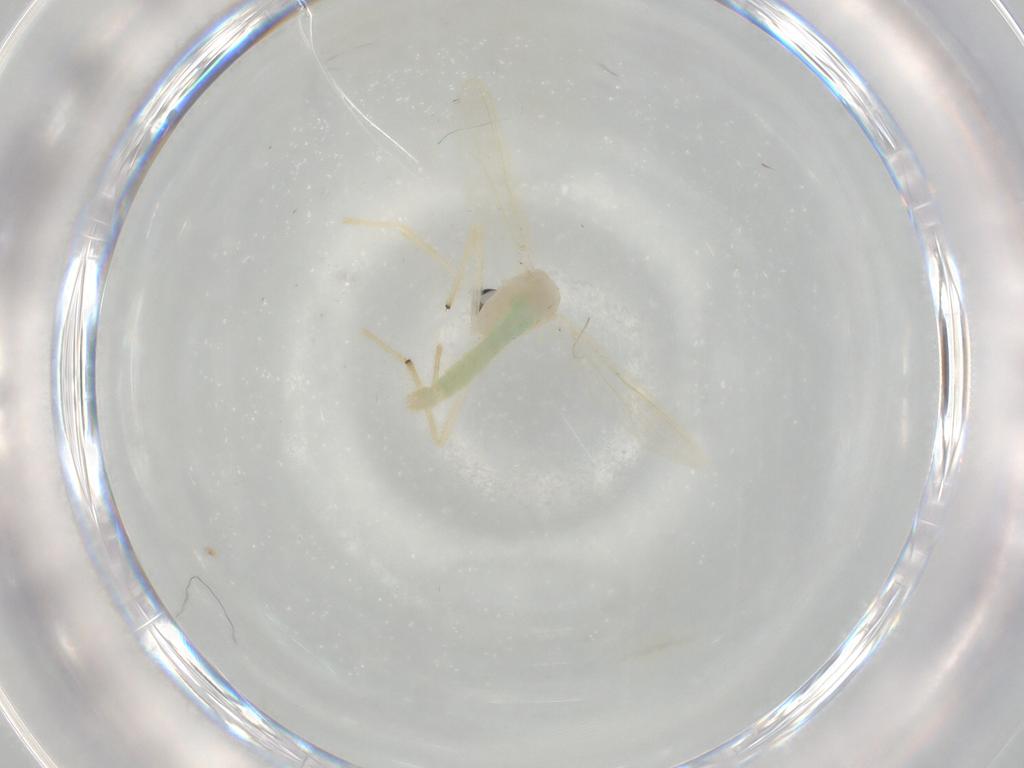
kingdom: Animalia
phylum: Arthropoda
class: Insecta
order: Diptera
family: Chironomidae
